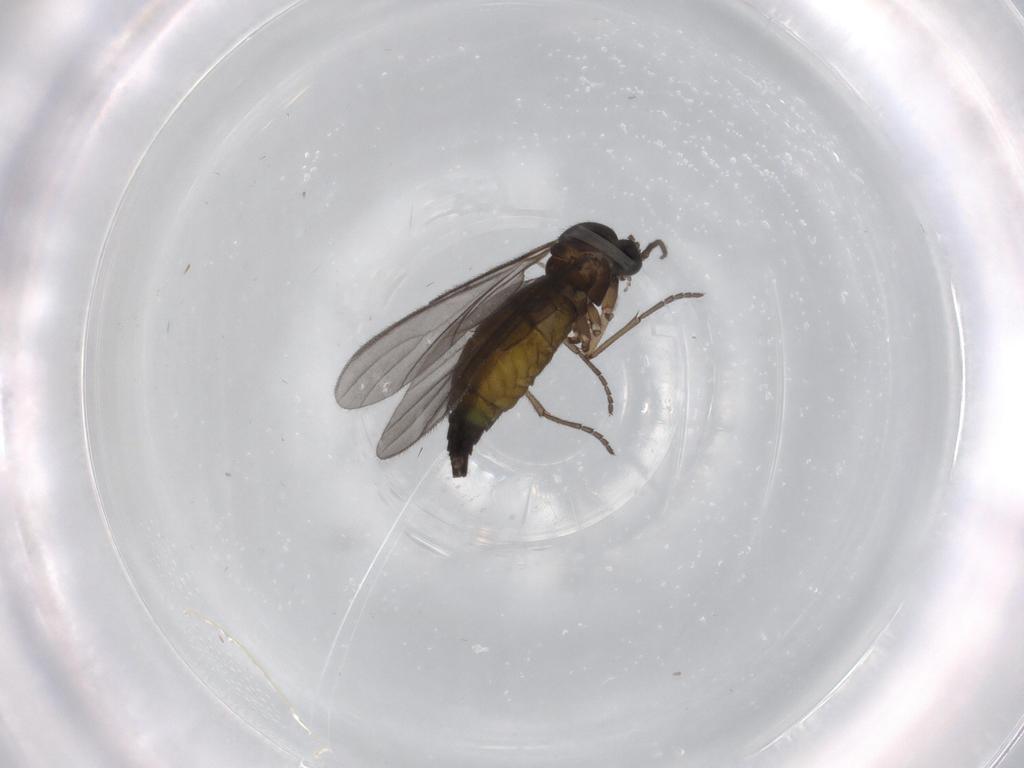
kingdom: Animalia
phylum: Arthropoda
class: Insecta
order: Diptera
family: Sciaridae
